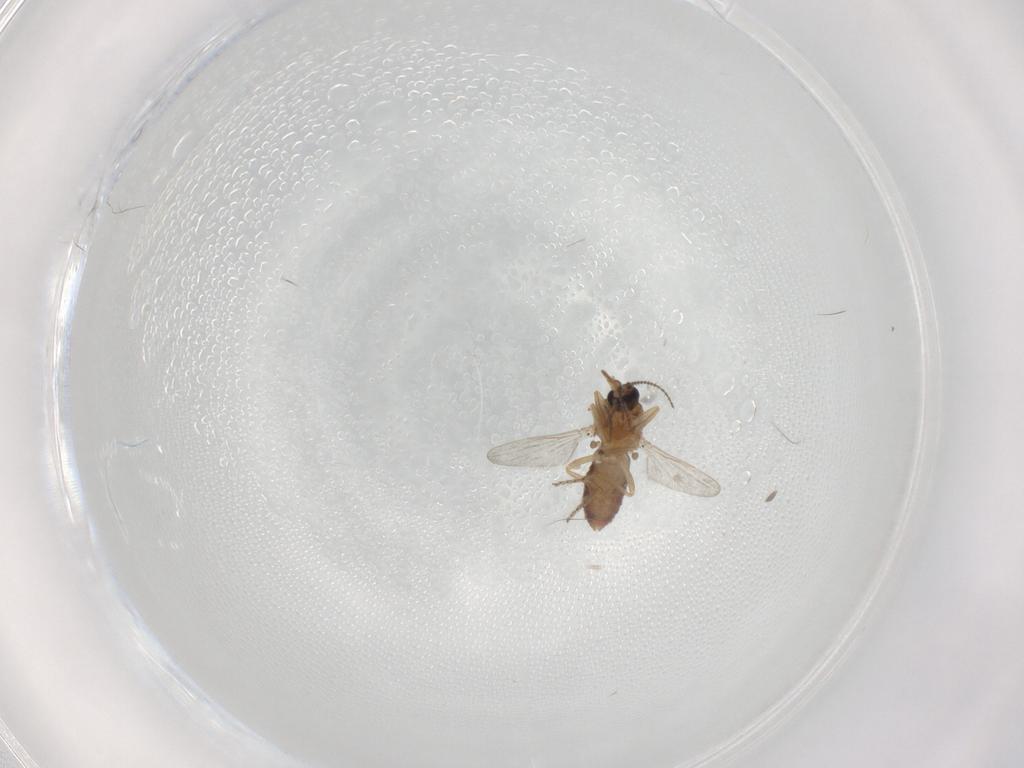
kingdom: Animalia
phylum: Arthropoda
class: Insecta
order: Diptera
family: Ceratopogonidae
